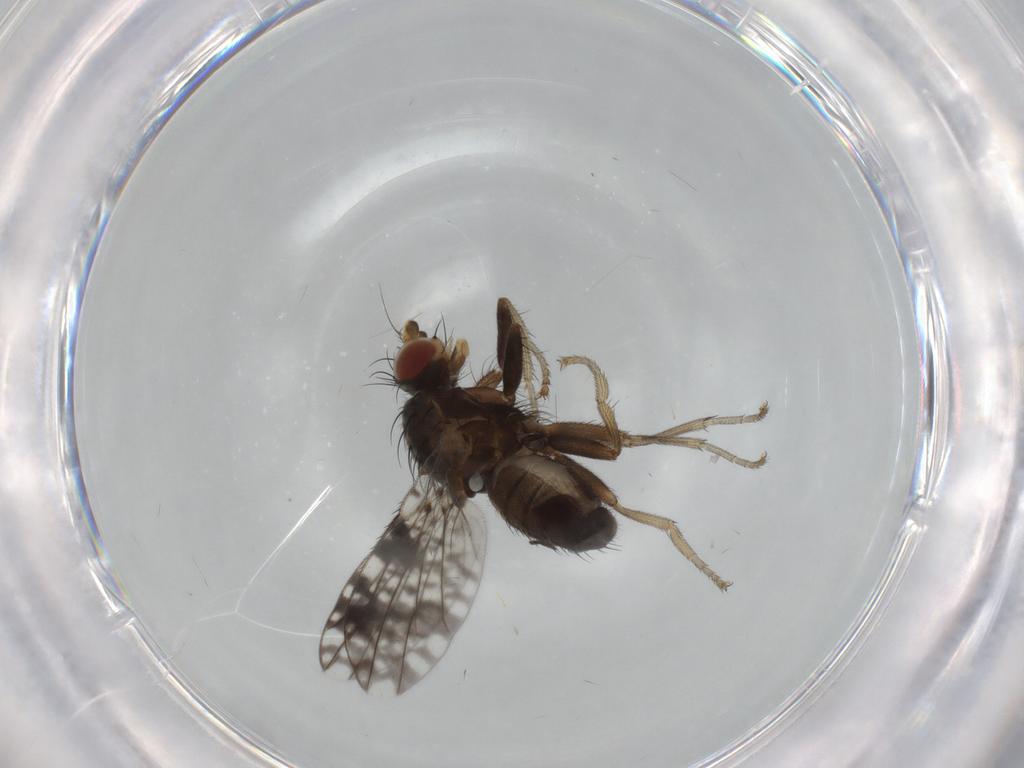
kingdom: Animalia
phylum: Arthropoda
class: Insecta
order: Diptera
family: Tephritidae
